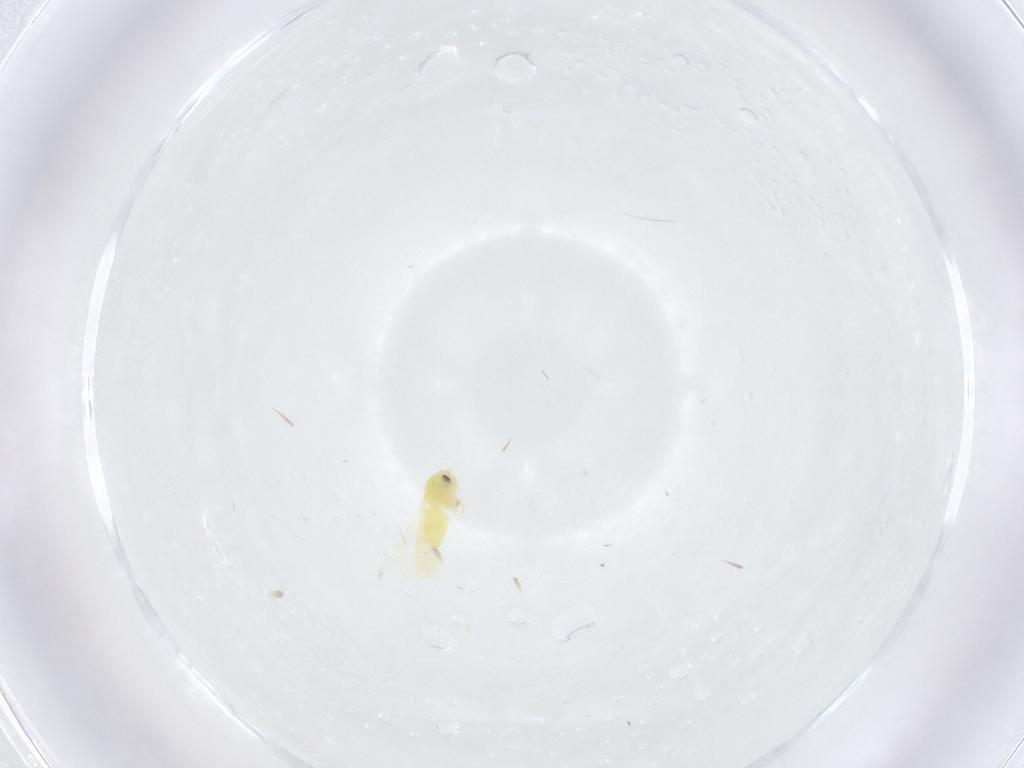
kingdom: Animalia
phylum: Arthropoda
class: Insecta
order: Hemiptera
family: Aleyrodidae
